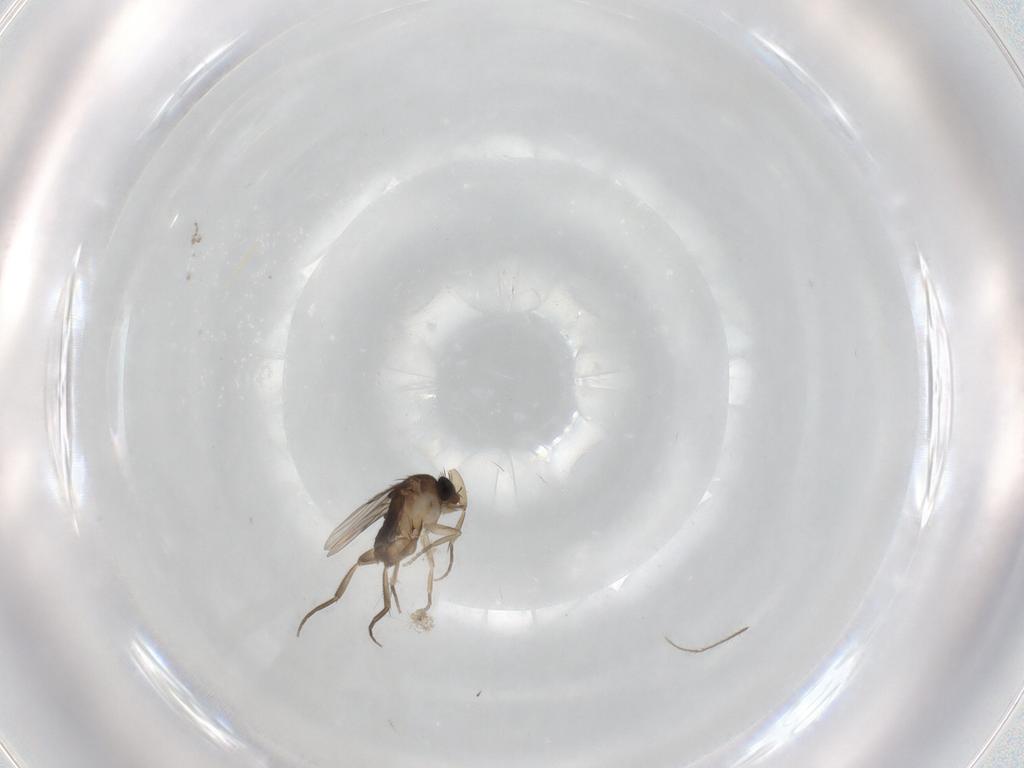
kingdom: Animalia
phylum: Arthropoda
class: Insecta
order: Diptera
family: Phoridae
